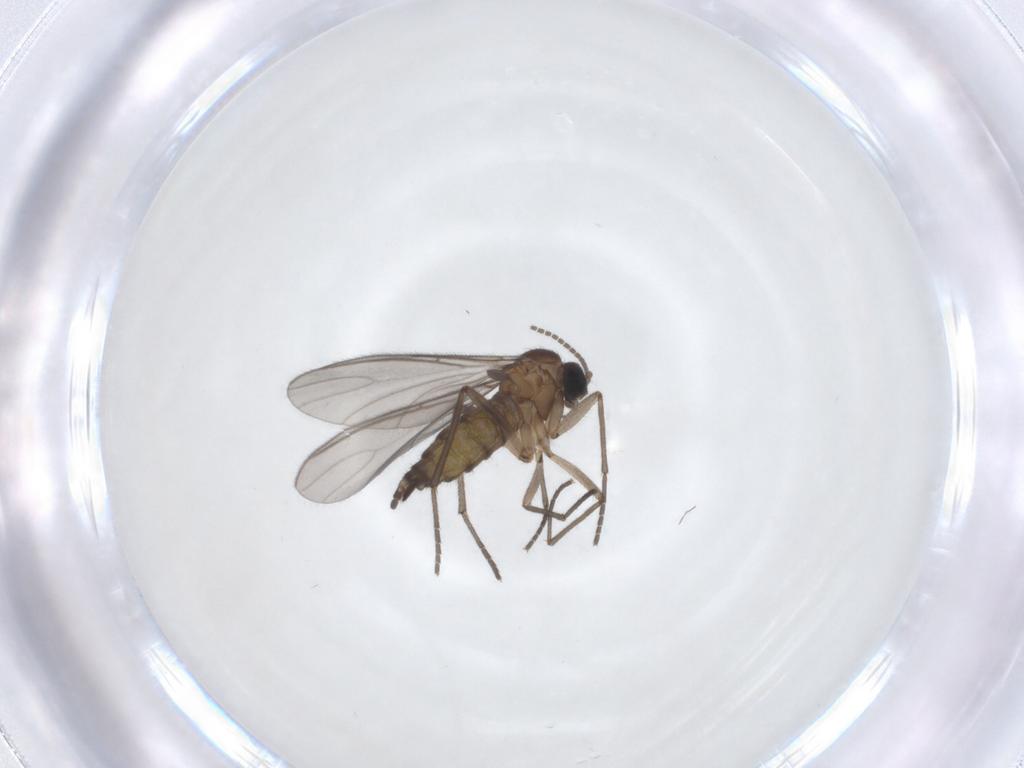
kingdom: Animalia
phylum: Arthropoda
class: Insecta
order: Diptera
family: Sciaridae
